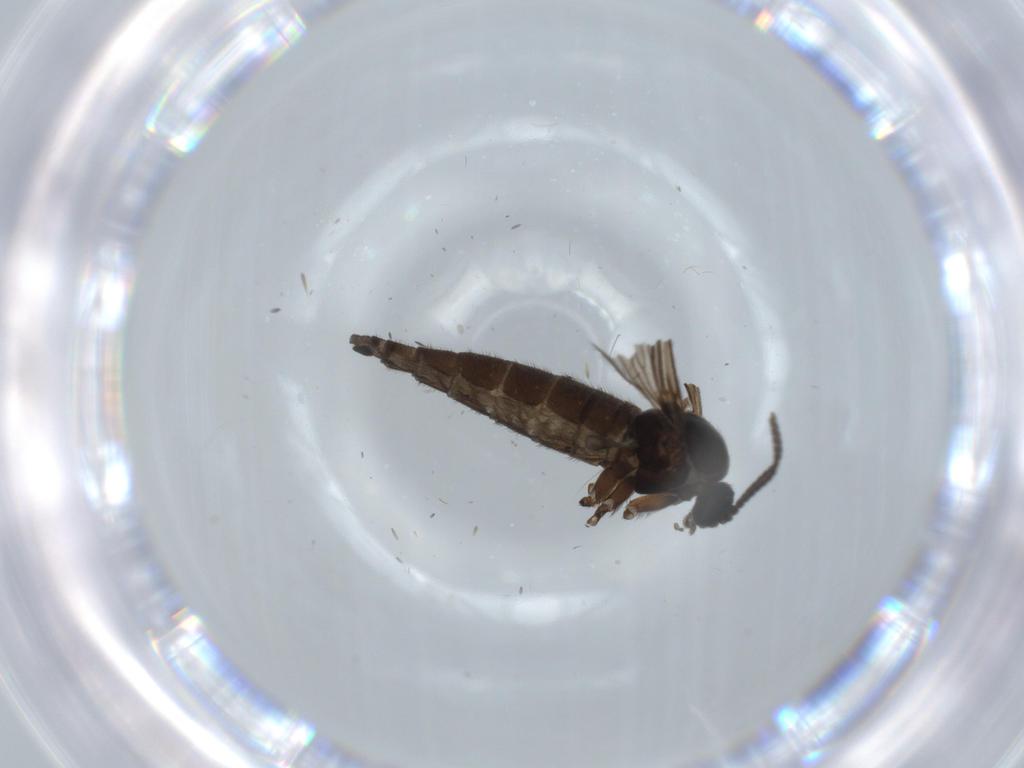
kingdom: Animalia
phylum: Arthropoda
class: Insecta
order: Diptera
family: Sciaridae
